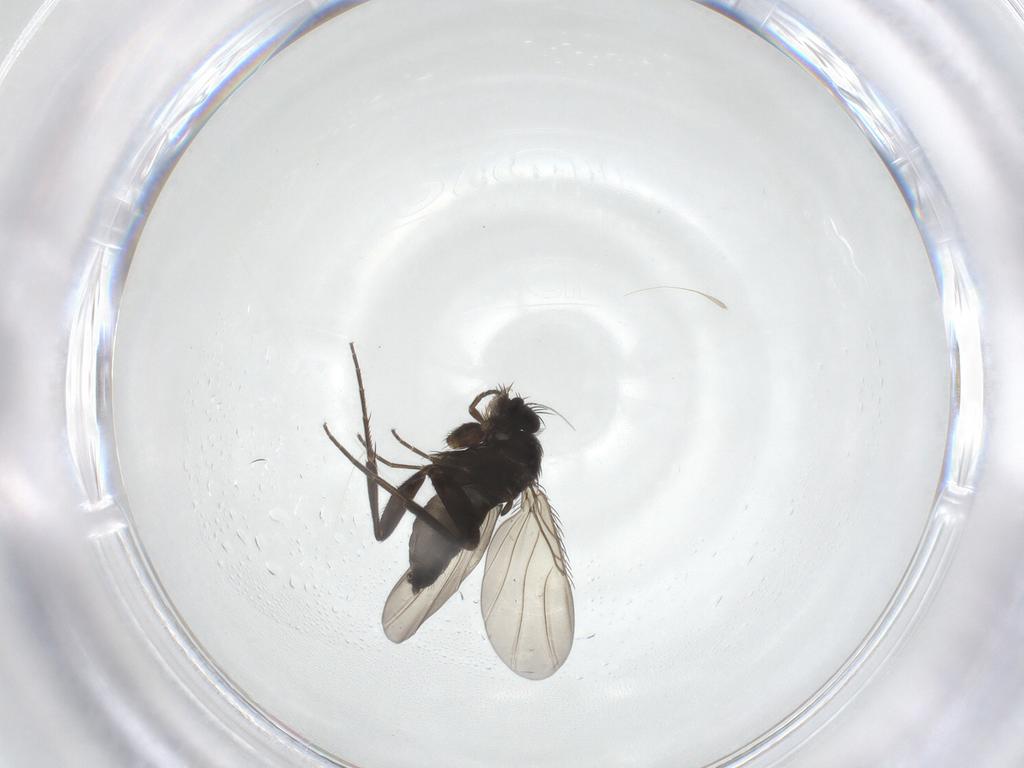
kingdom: Animalia
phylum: Arthropoda
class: Insecta
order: Diptera
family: Phoridae
